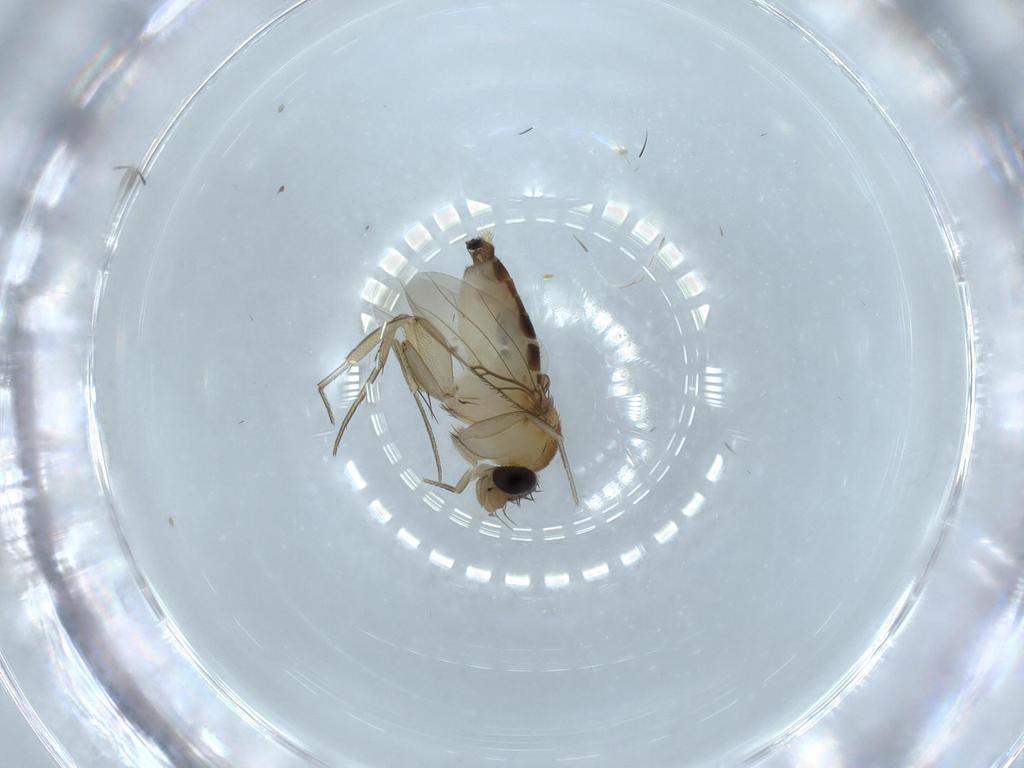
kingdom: Animalia
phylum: Arthropoda
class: Insecta
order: Diptera
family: Phoridae
